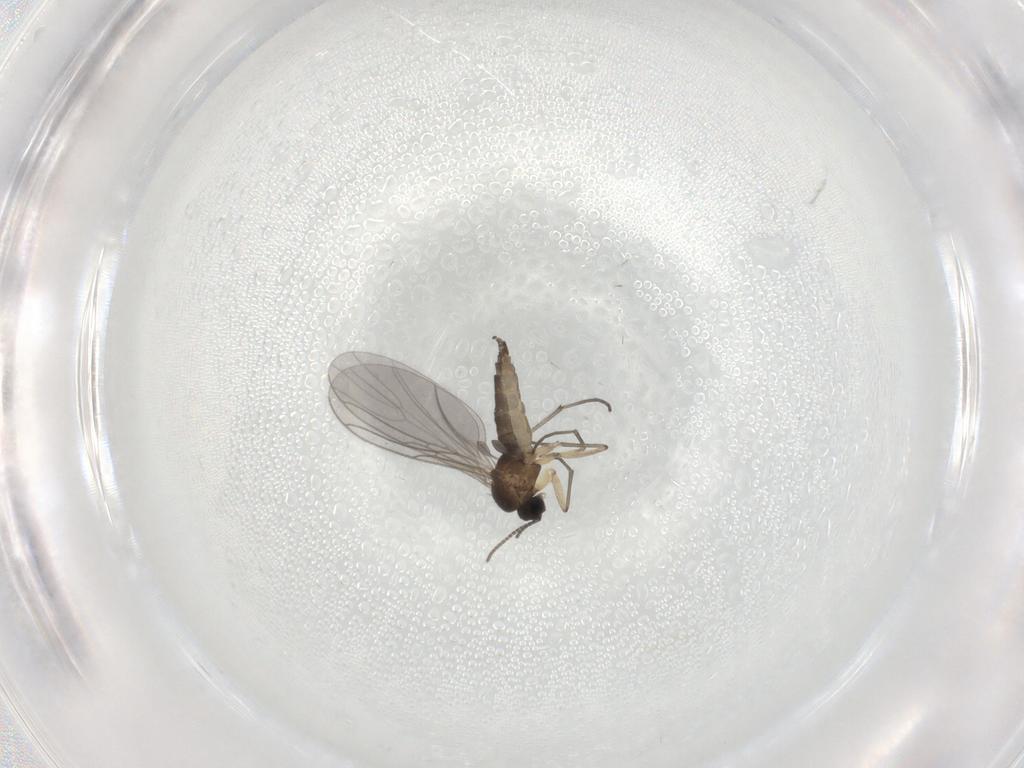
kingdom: Animalia
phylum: Arthropoda
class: Insecta
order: Diptera
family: Sciaridae
